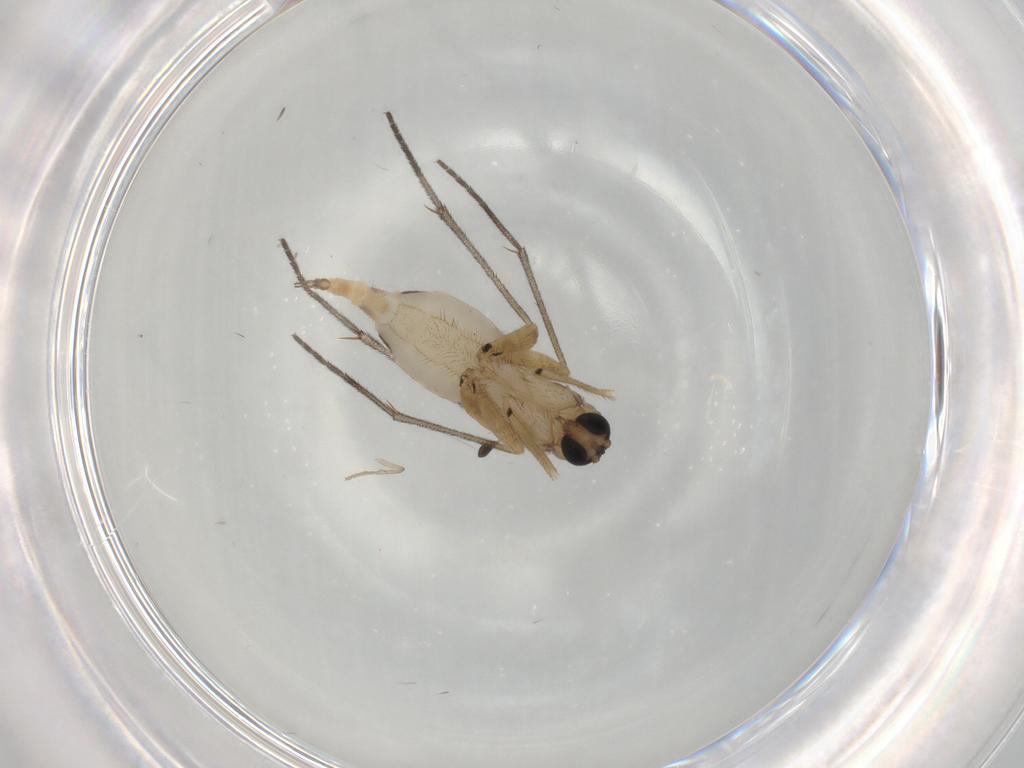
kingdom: Animalia
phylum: Arthropoda
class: Insecta
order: Diptera
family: Sciaridae
